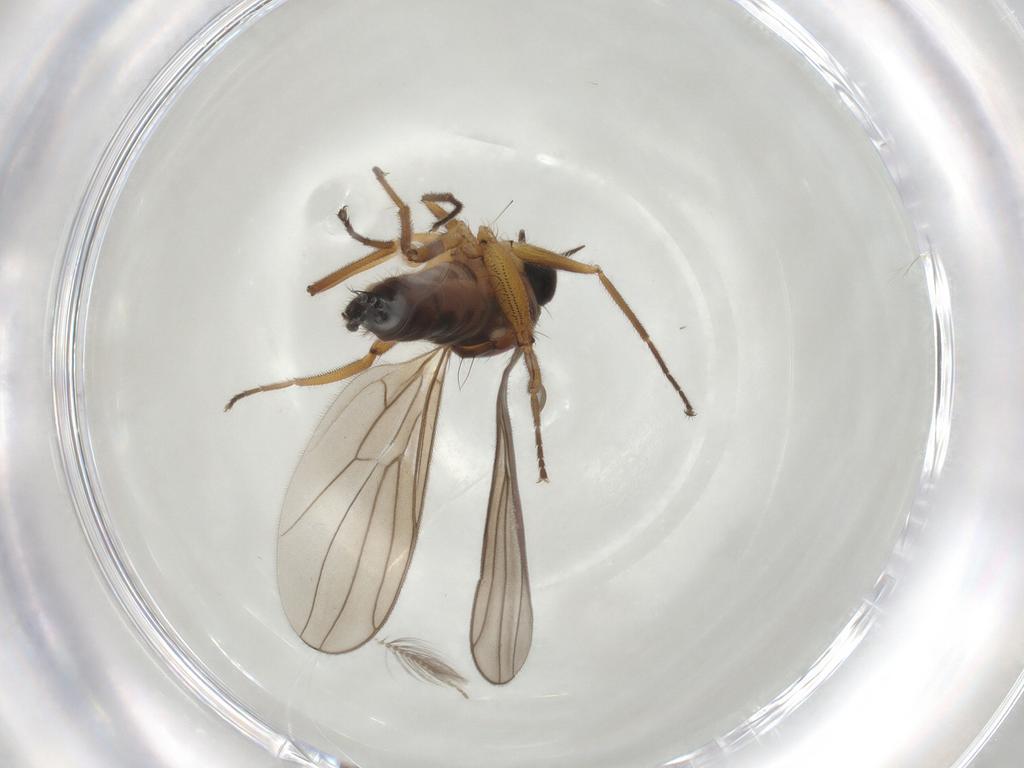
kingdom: Animalia
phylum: Arthropoda
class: Insecta
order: Diptera
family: Hybotidae
